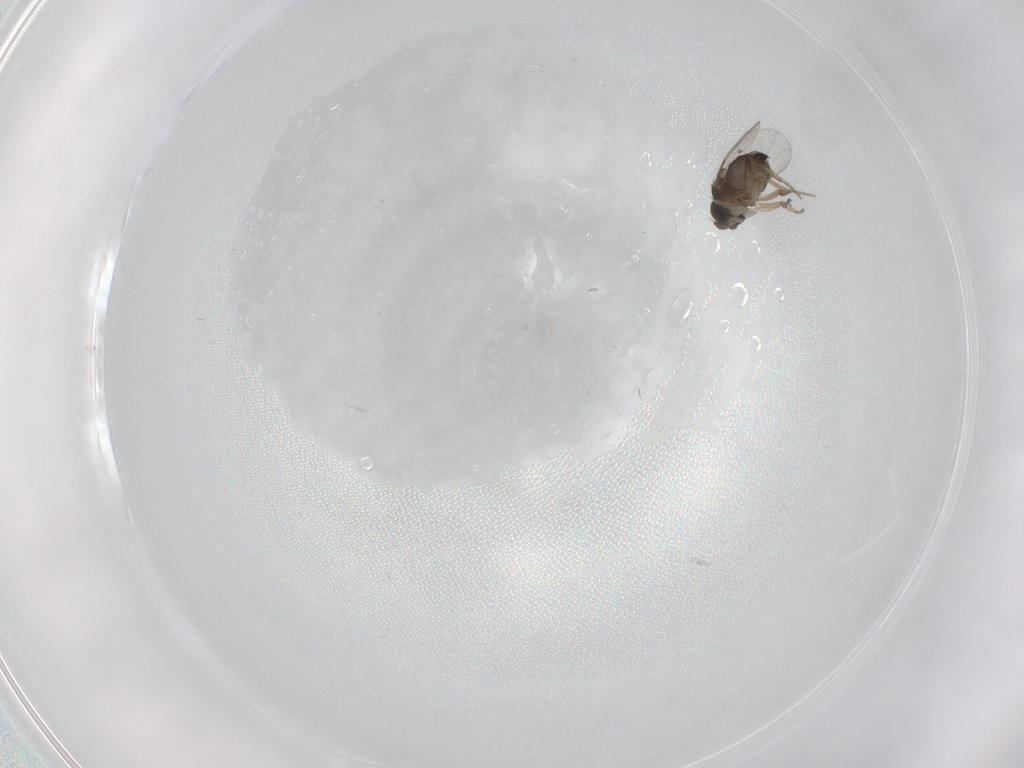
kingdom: Animalia
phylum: Arthropoda
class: Insecta
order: Diptera
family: Phoridae
